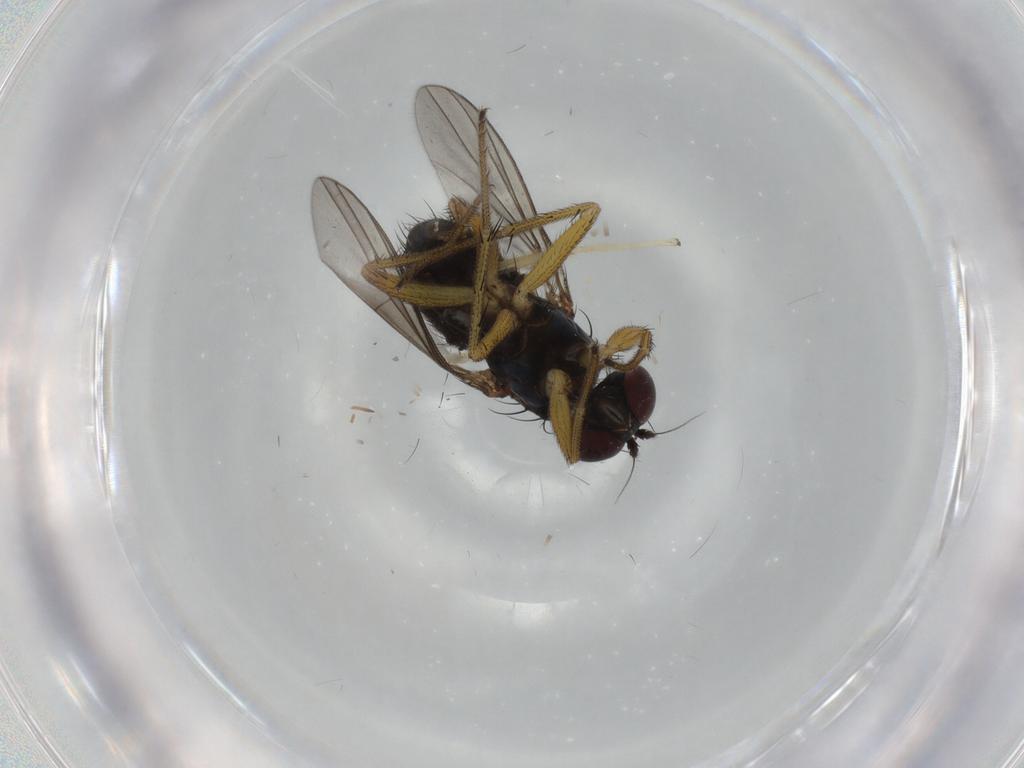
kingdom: Animalia
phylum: Arthropoda
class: Insecta
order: Diptera
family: Dolichopodidae
